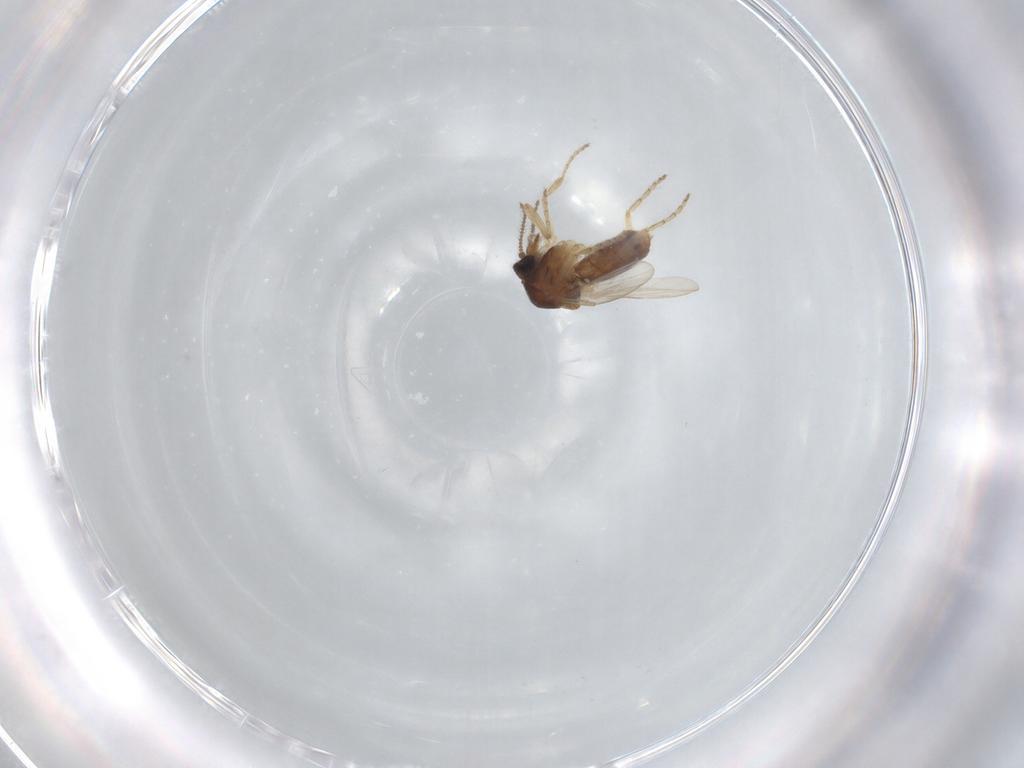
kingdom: Animalia
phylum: Arthropoda
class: Insecta
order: Diptera
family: Ceratopogonidae
